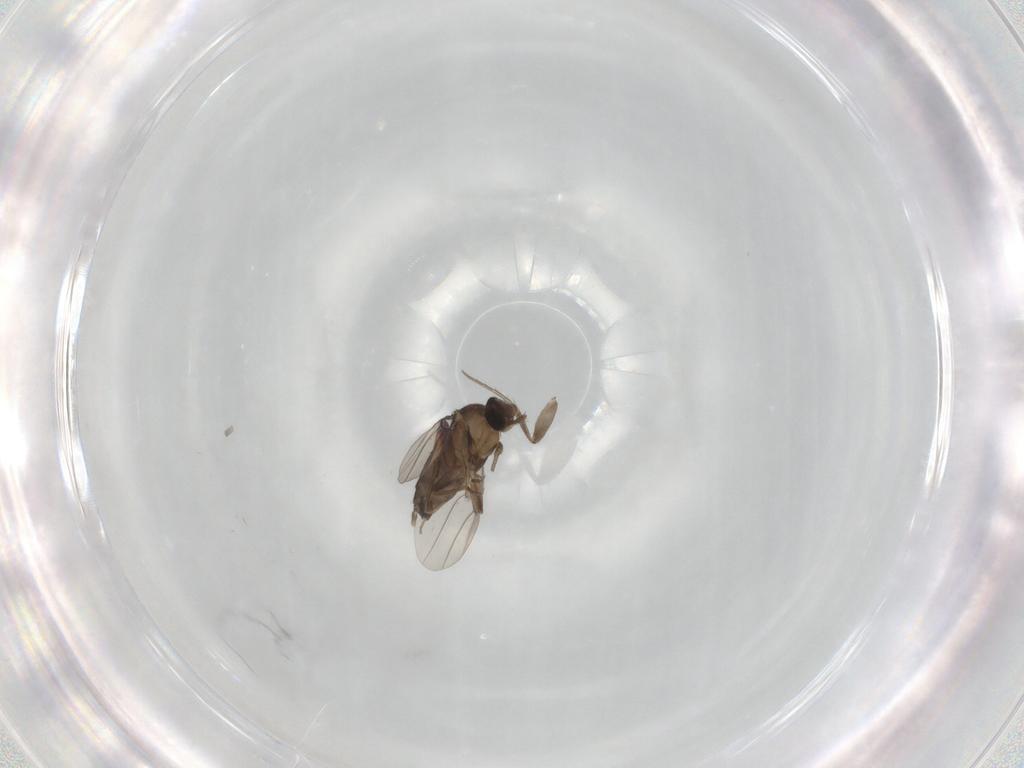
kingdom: Animalia
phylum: Arthropoda
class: Insecta
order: Diptera
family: Phoridae
